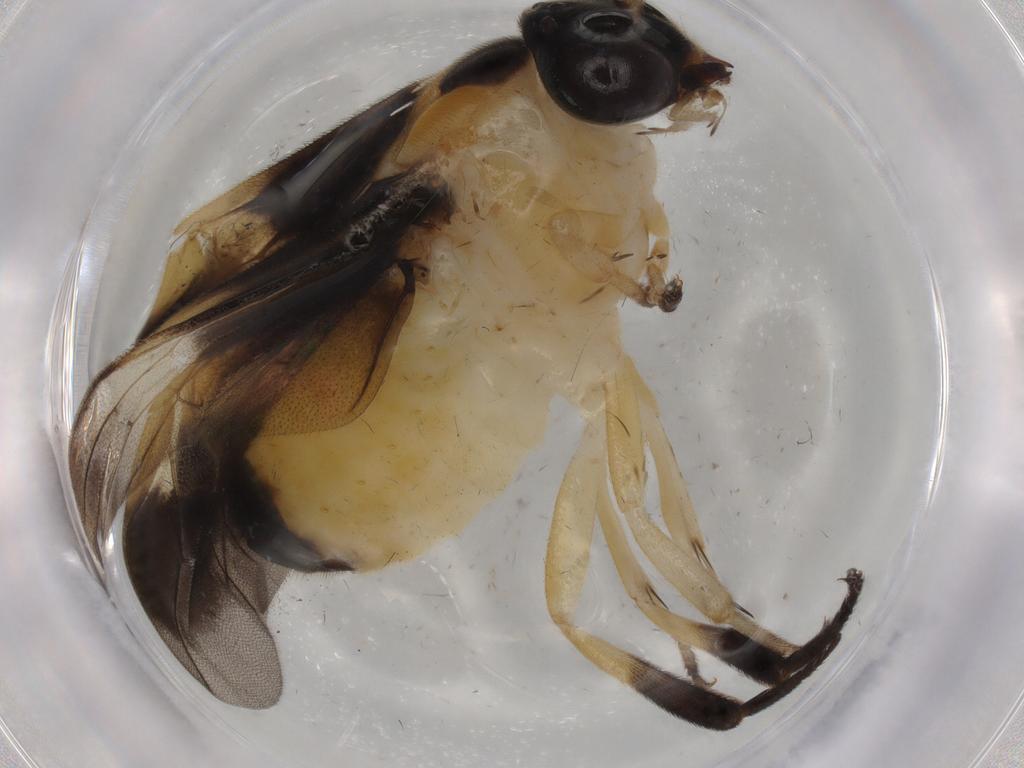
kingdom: Animalia
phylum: Arthropoda
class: Insecta
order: Hymenoptera
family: Argidae
